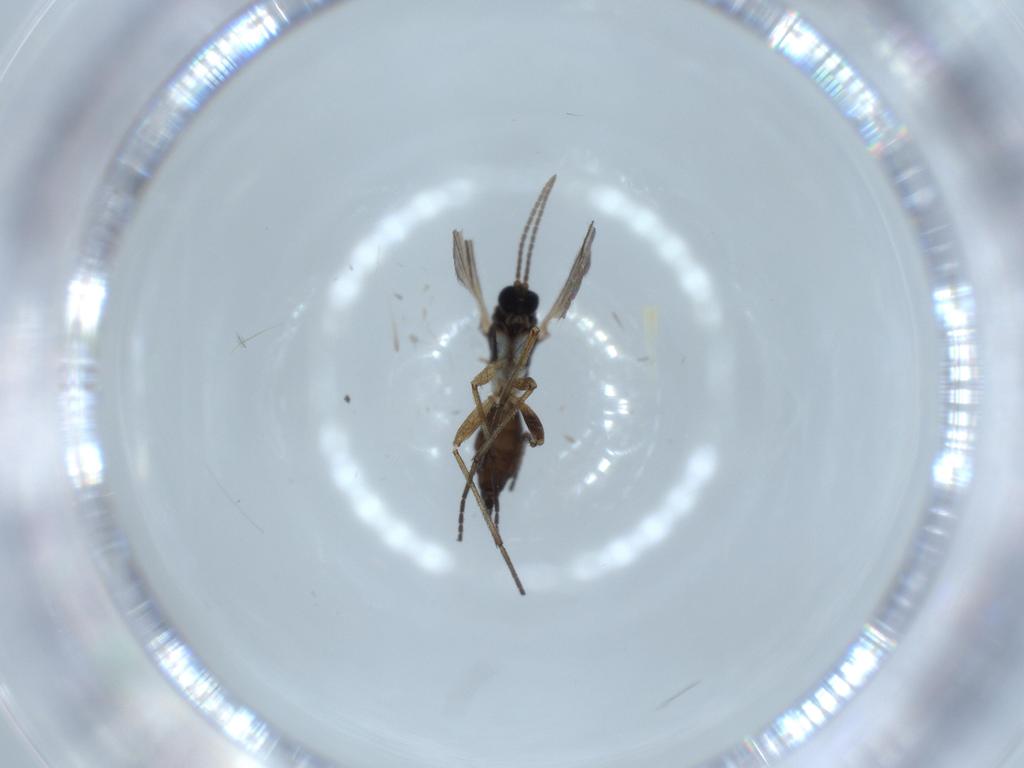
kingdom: Animalia
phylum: Arthropoda
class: Insecta
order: Diptera
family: Sciaridae
